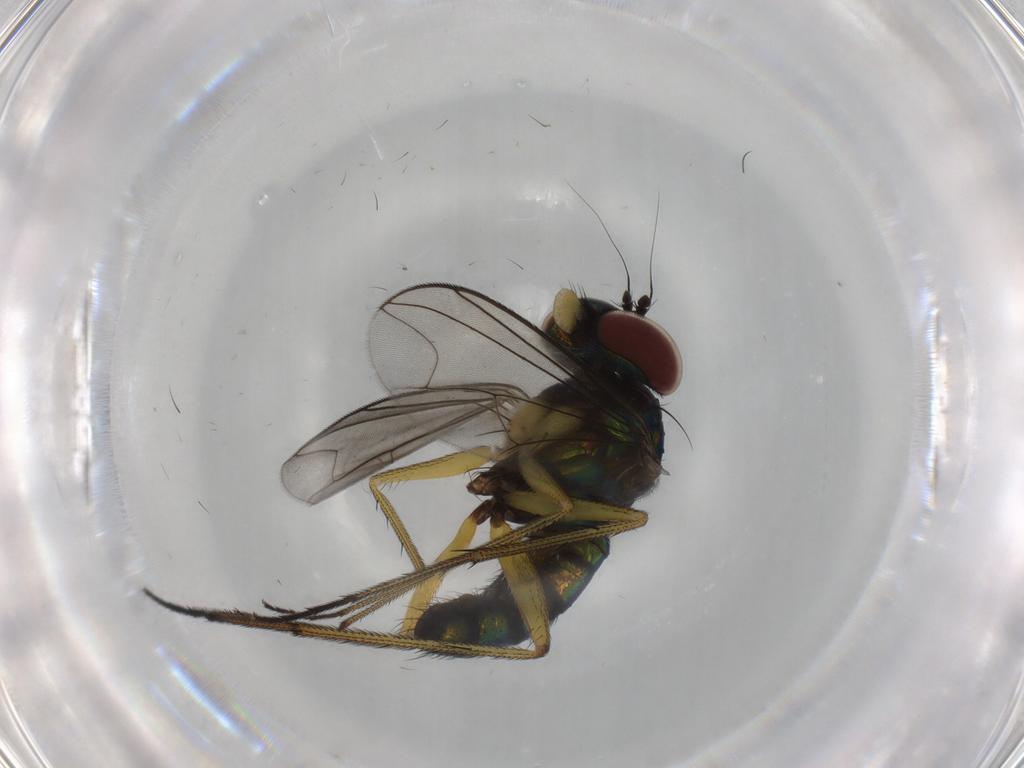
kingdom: Animalia
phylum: Arthropoda
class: Insecta
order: Diptera
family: Dolichopodidae
